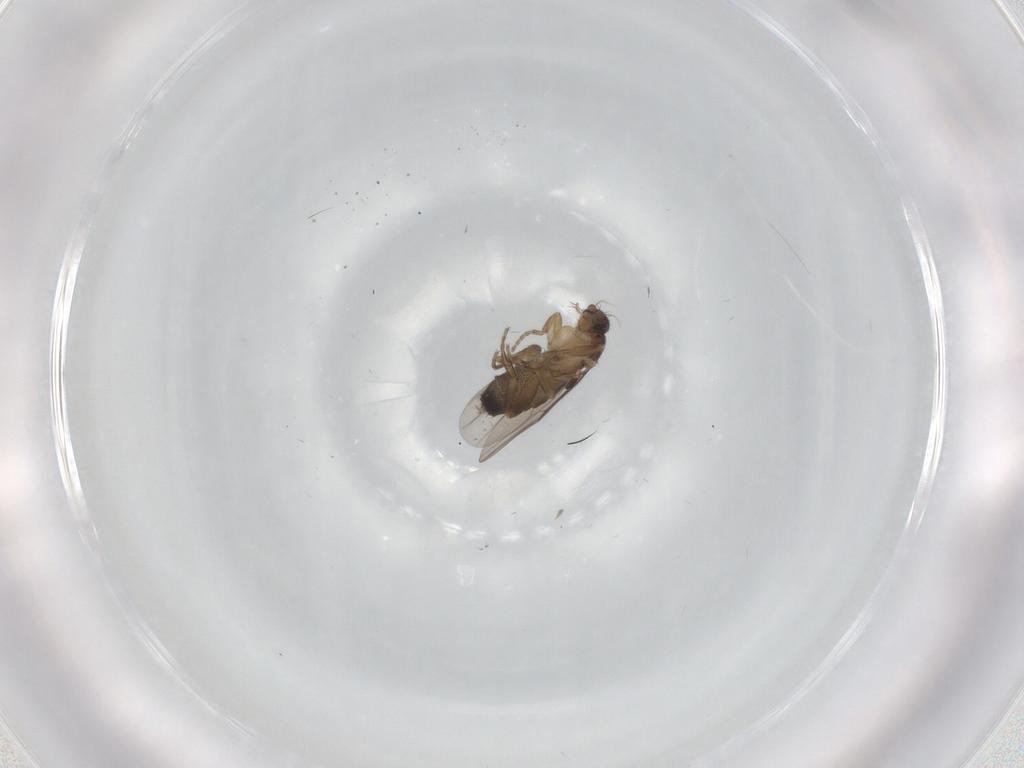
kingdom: Animalia
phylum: Arthropoda
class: Insecta
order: Diptera
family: Phoridae
